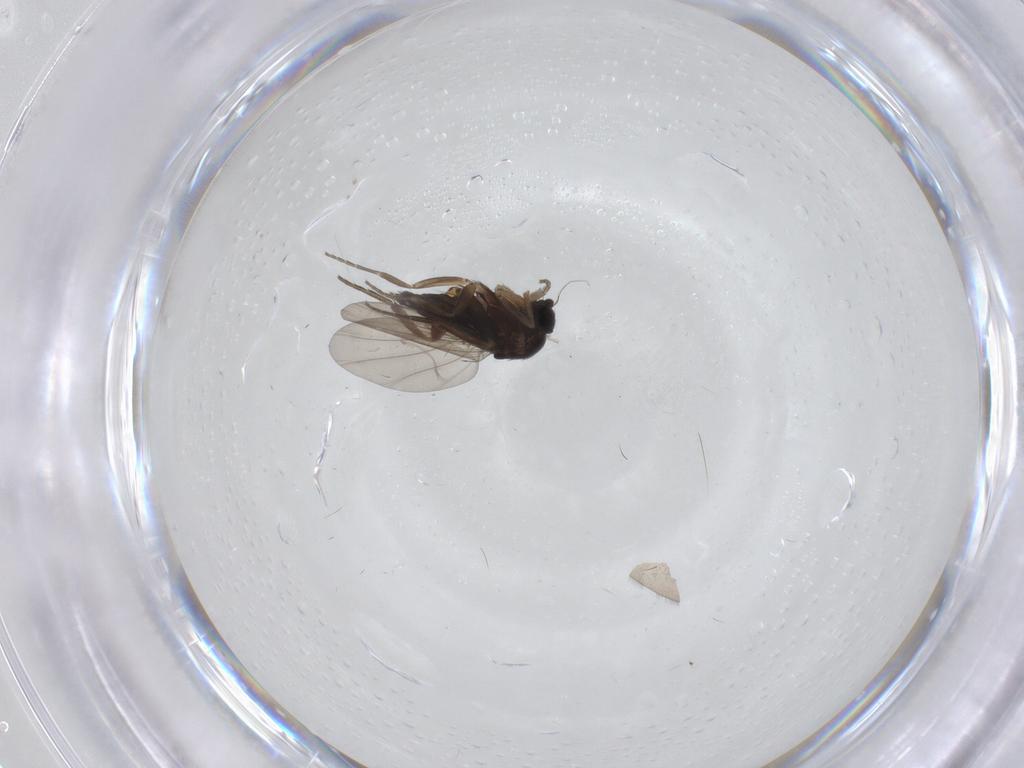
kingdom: Animalia
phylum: Arthropoda
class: Insecta
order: Diptera
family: Phoridae
